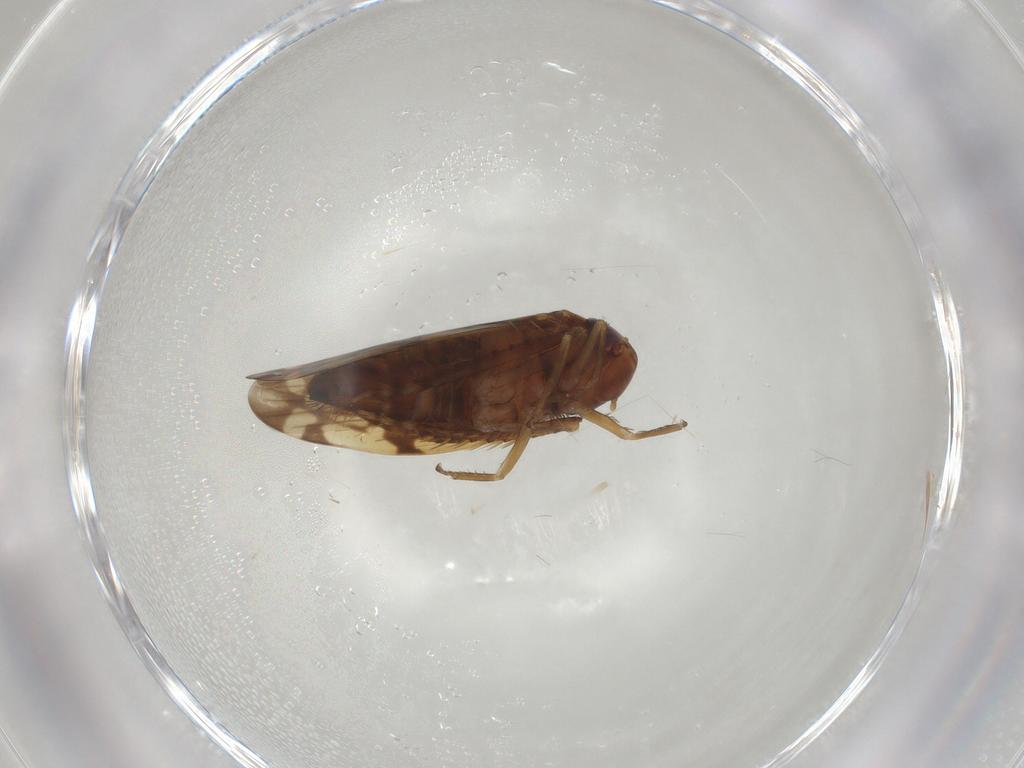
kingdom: Animalia
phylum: Arthropoda
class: Insecta
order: Hemiptera
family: Cicadellidae
